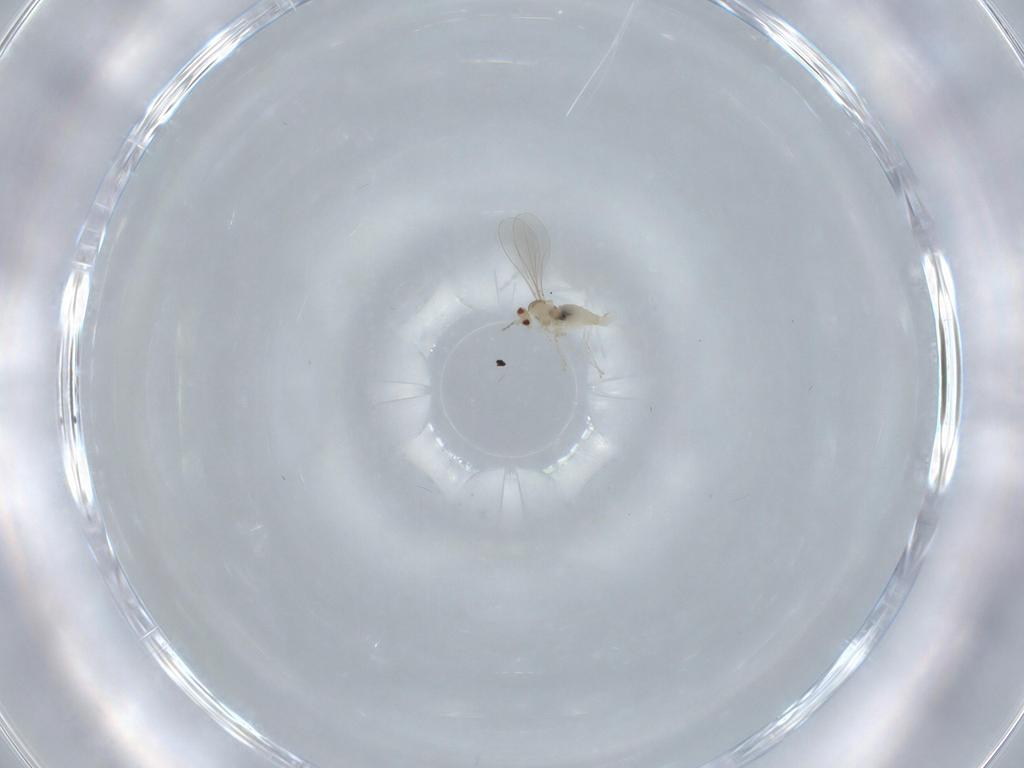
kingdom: Animalia
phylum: Arthropoda
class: Insecta
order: Diptera
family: Cecidomyiidae
